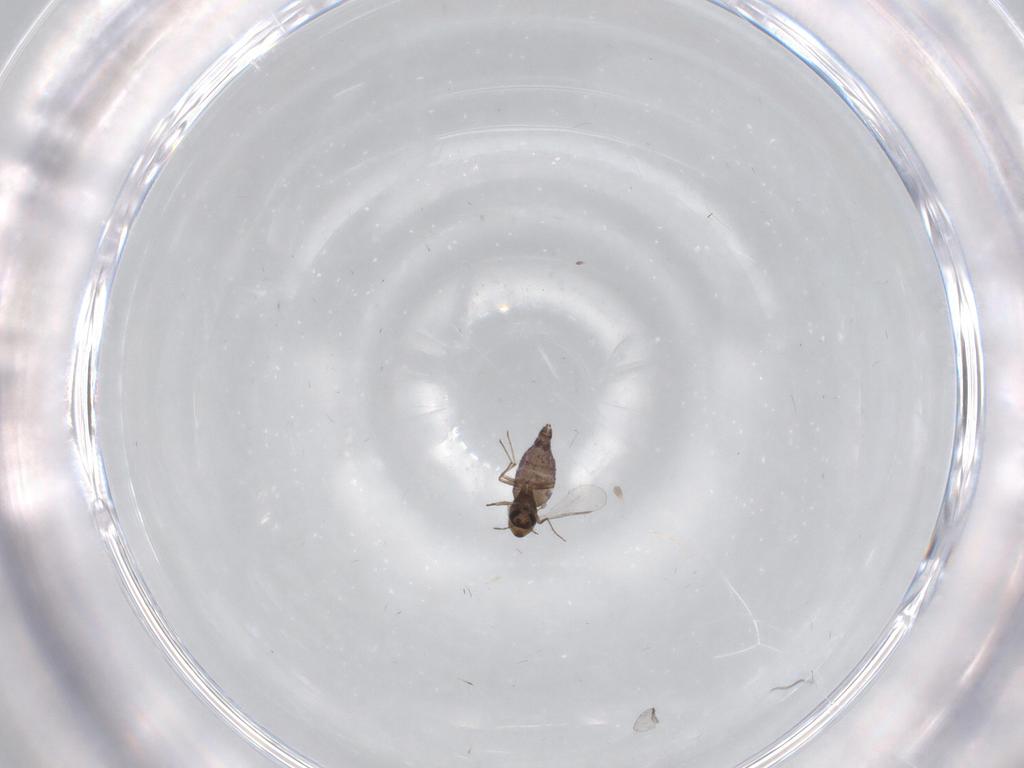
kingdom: Animalia
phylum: Arthropoda
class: Insecta
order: Diptera
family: Chironomidae
